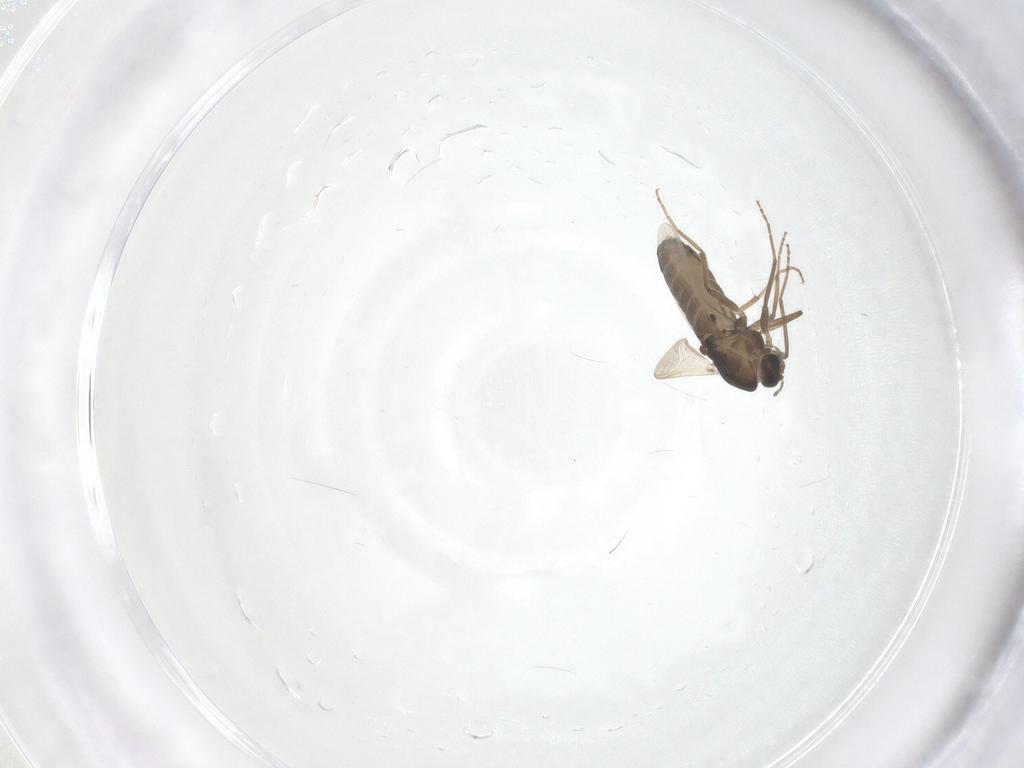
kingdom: Animalia
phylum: Arthropoda
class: Insecta
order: Diptera
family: Limoniidae
